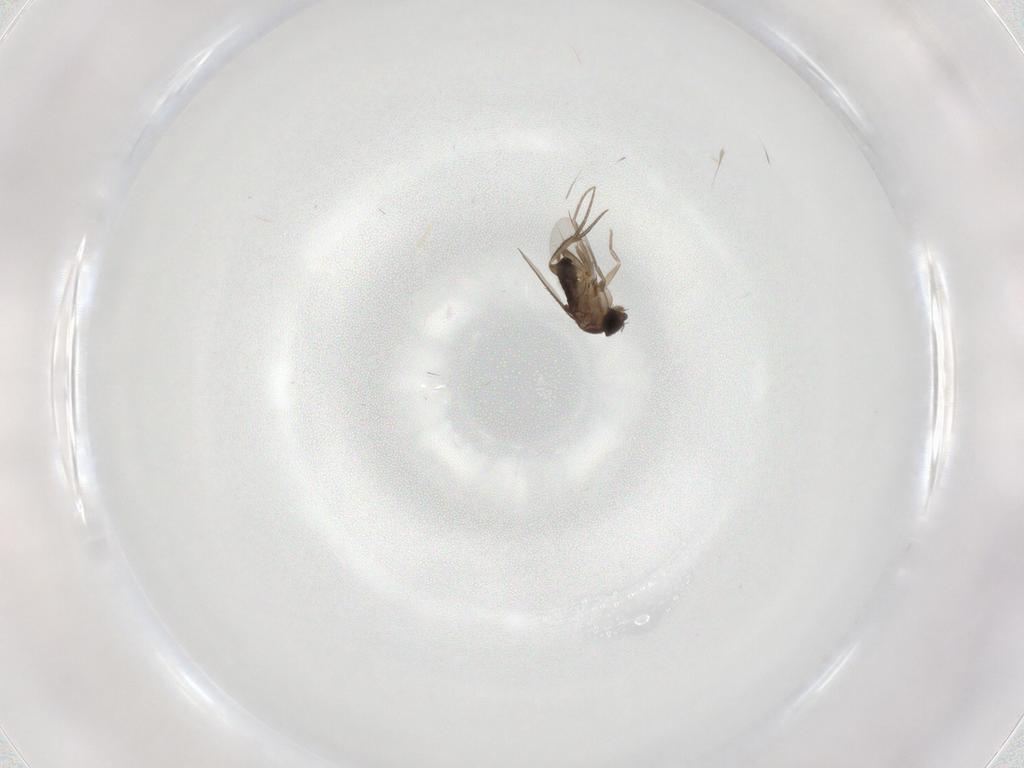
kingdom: Animalia
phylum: Arthropoda
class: Insecta
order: Diptera
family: Phoridae
